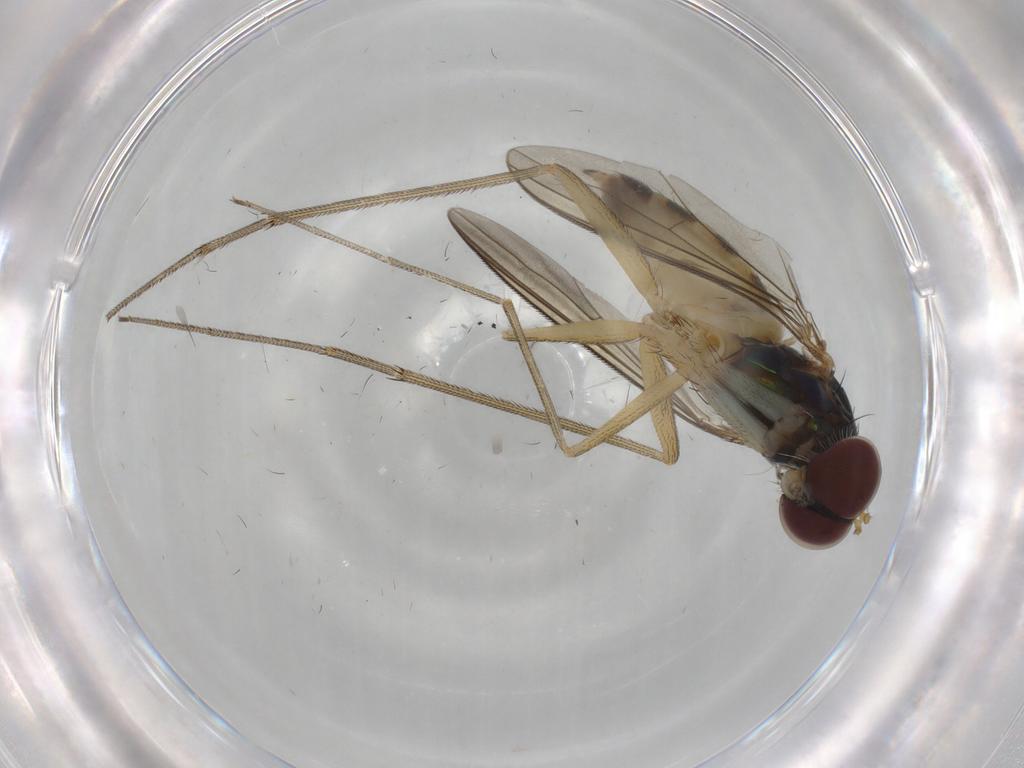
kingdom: Animalia
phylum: Arthropoda
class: Insecta
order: Diptera
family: Dolichopodidae
